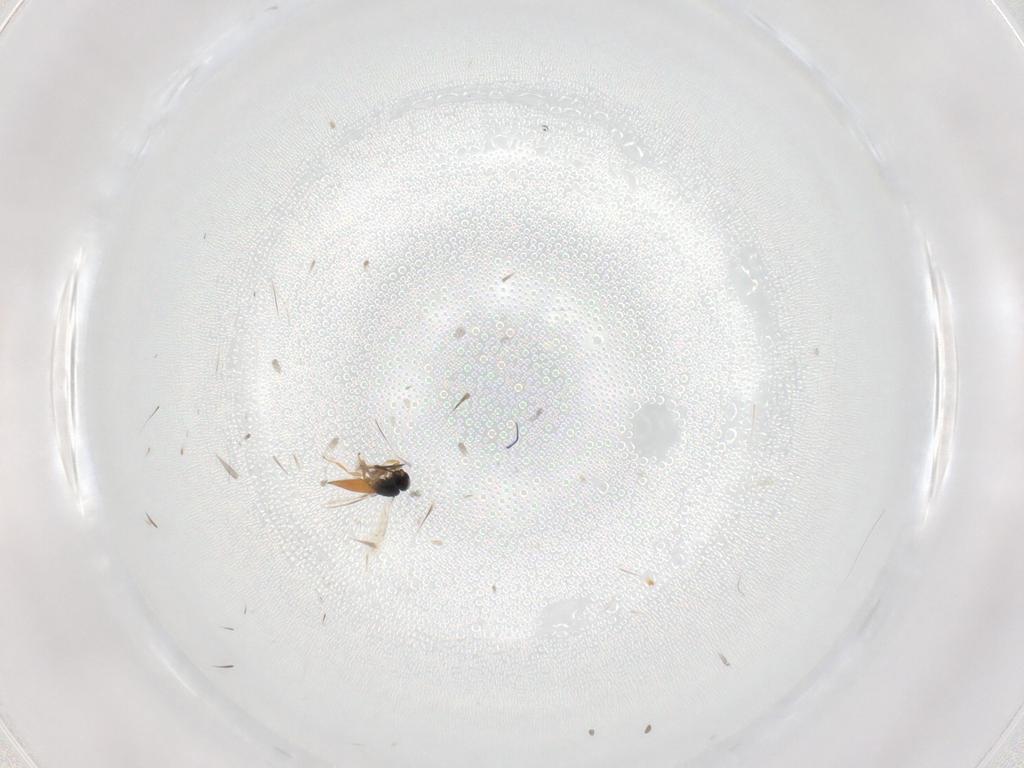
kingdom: Animalia
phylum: Arthropoda
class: Insecta
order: Hymenoptera
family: Scelionidae
